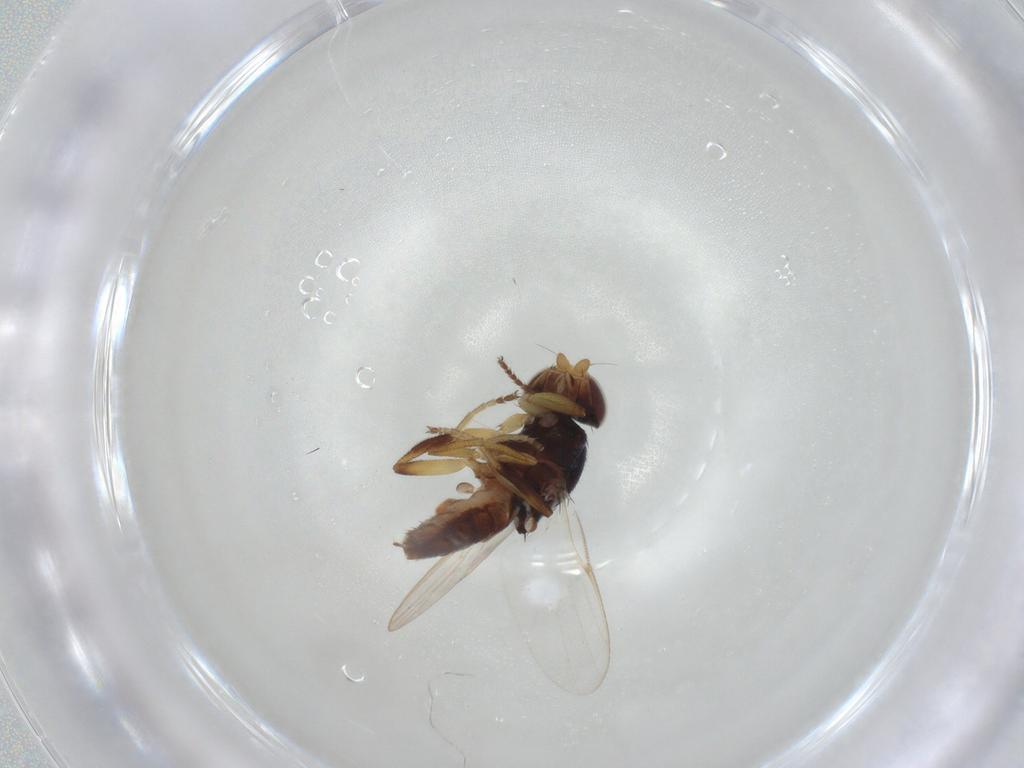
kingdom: Animalia
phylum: Arthropoda
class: Insecta
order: Diptera
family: Chloropidae
